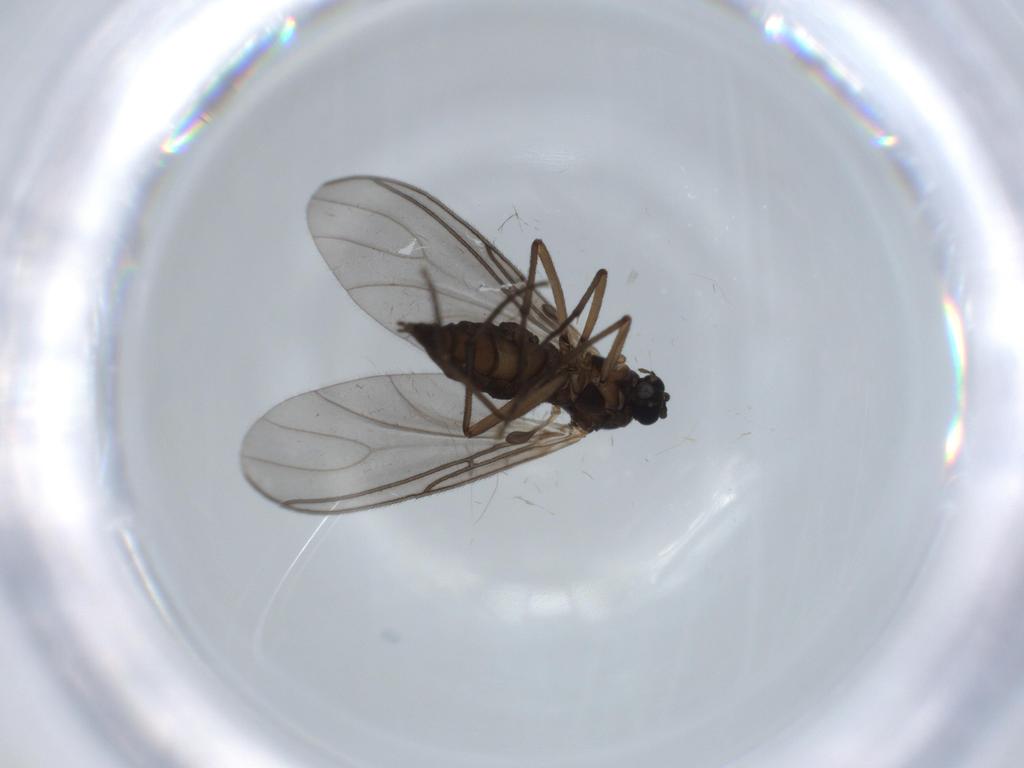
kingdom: Animalia
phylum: Arthropoda
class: Insecta
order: Diptera
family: Sciaridae
